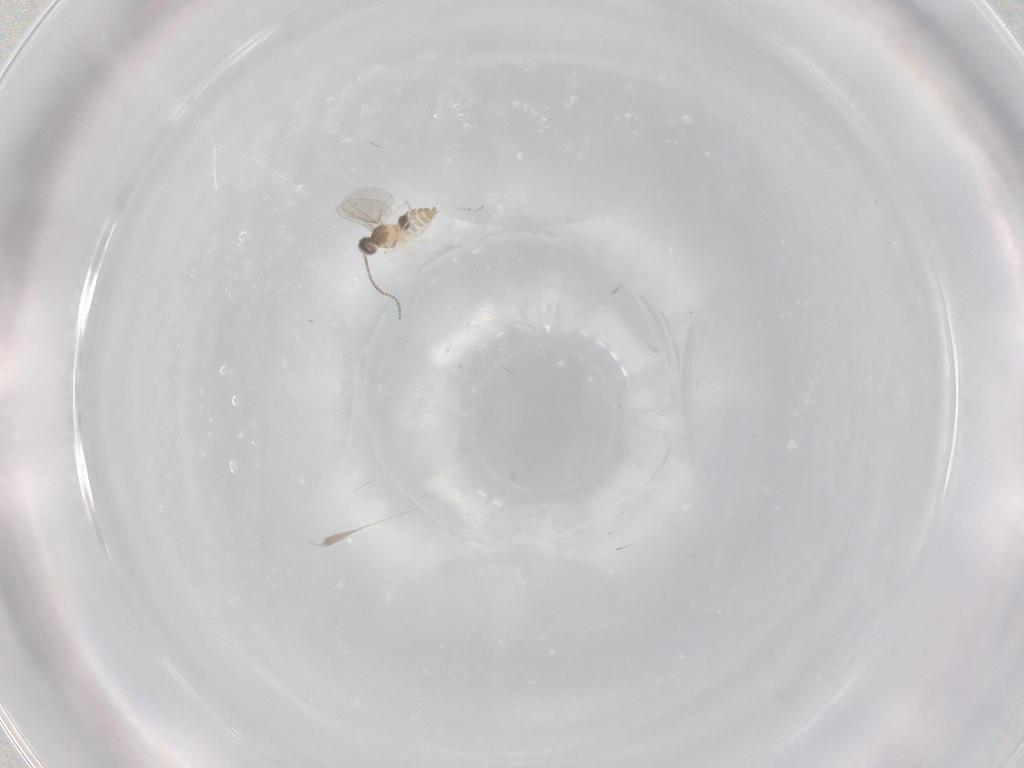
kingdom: Animalia
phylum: Arthropoda
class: Insecta
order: Diptera
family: Cecidomyiidae
